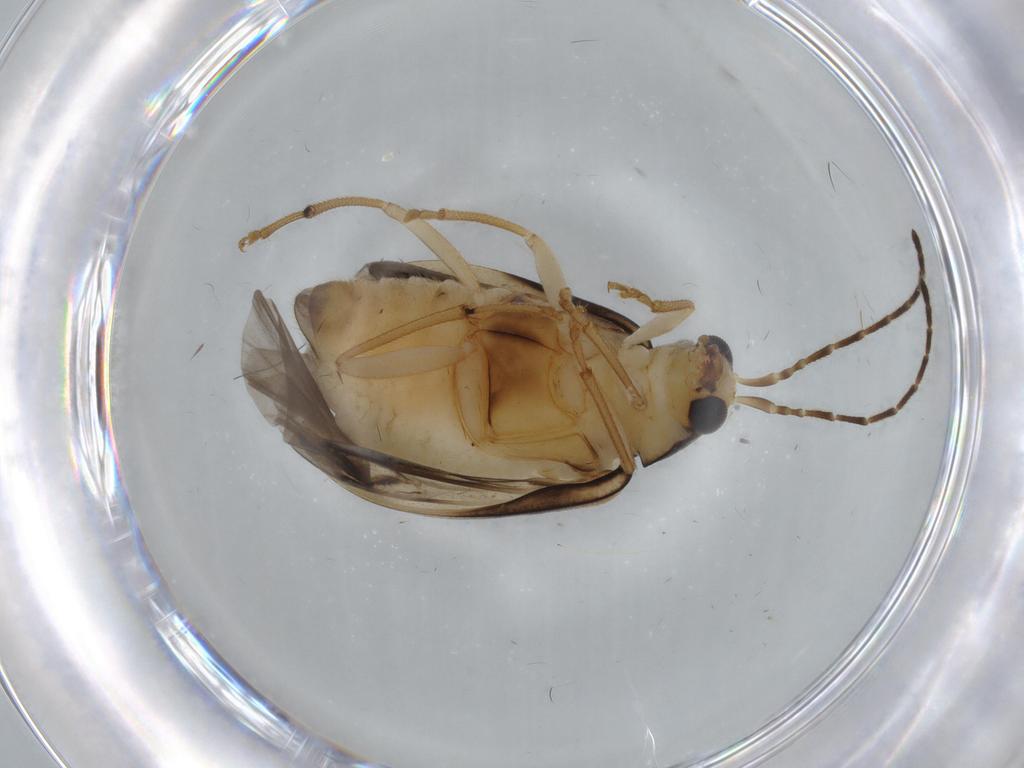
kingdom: Animalia
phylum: Arthropoda
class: Insecta
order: Coleoptera
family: Chrysomelidae
